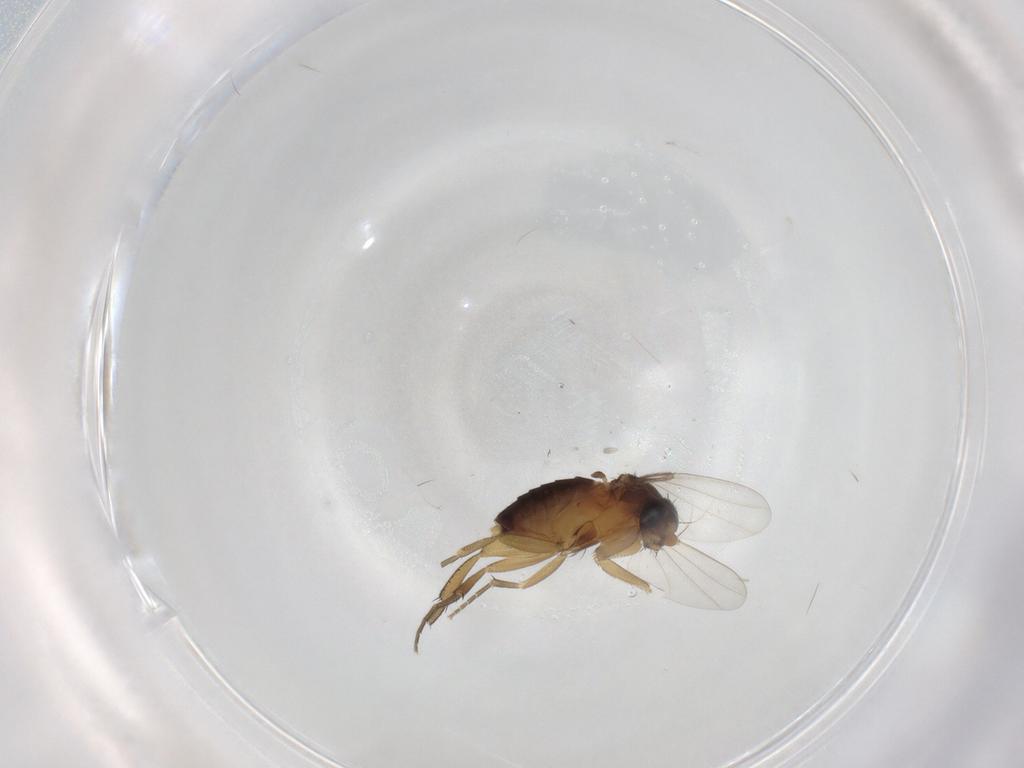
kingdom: Animalia
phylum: Arthropoda
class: Insecta
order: Diptera
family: Phoridae
